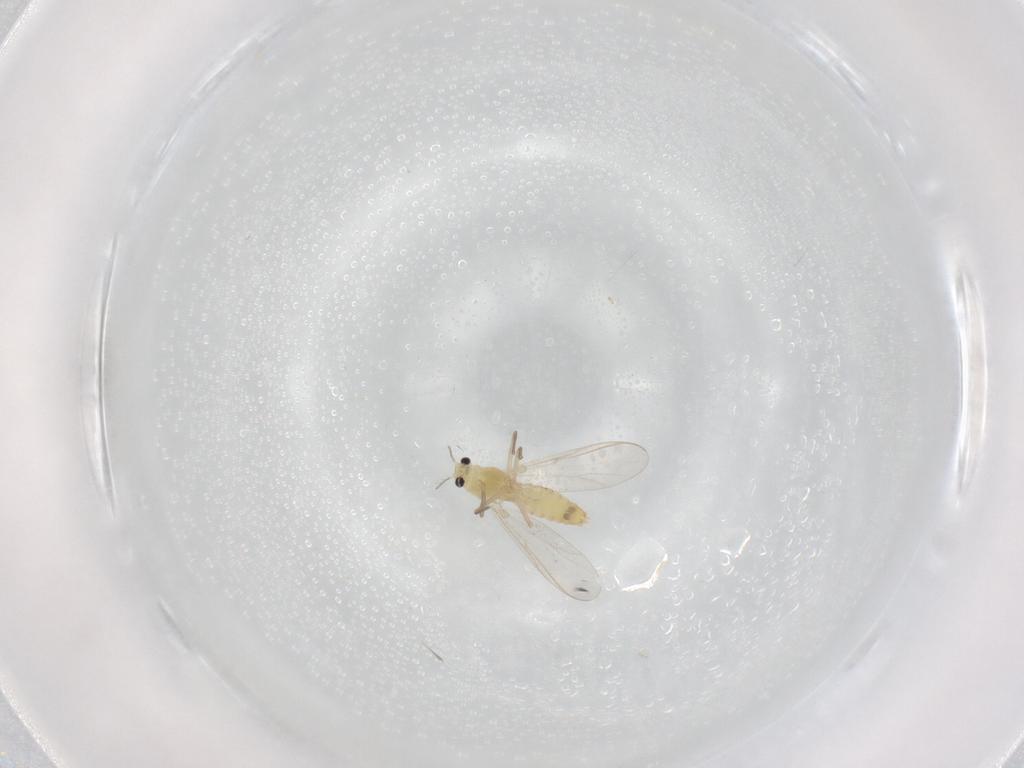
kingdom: Animalia
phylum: Arthropoda
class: Insecta
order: Diptera
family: Chironomidae
